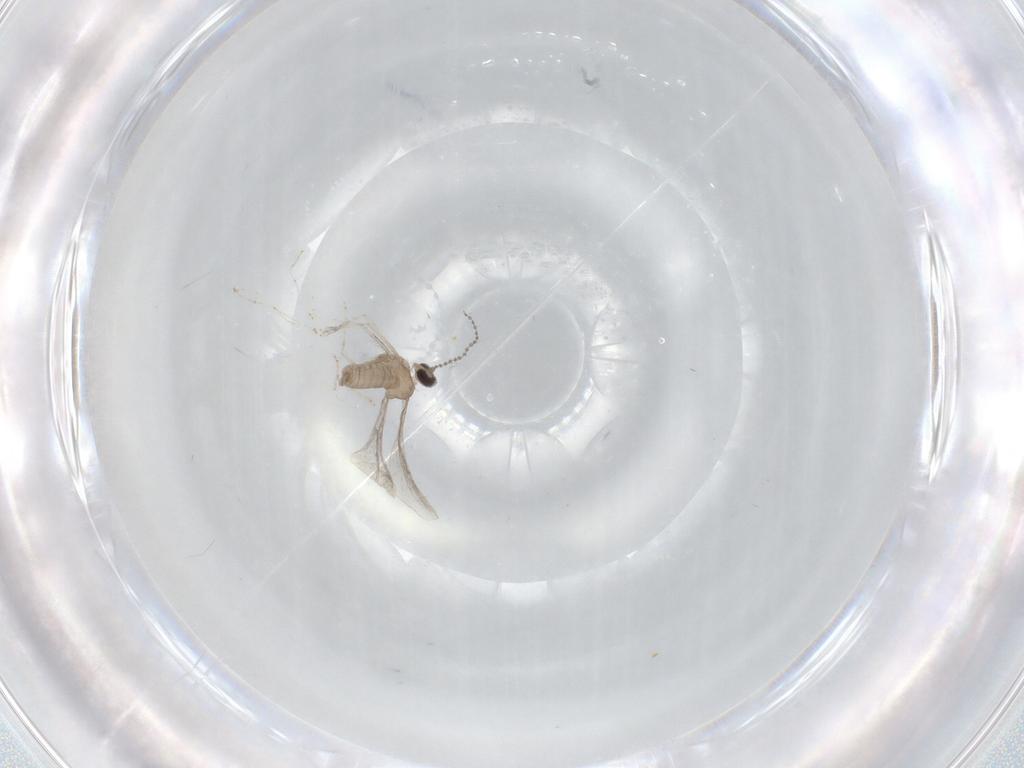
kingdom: Animalia
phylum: Arthropoda
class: Insecta
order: Diptera
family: Cecidomyiidae
